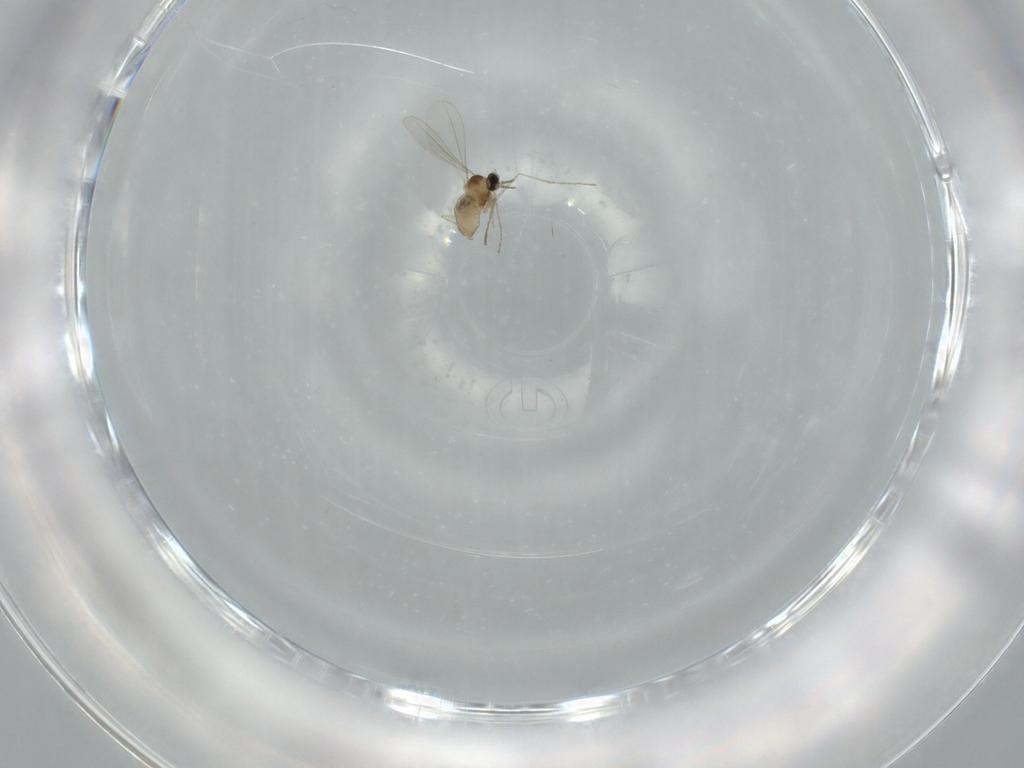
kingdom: Animalia
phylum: Arthropoda
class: Insecta
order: Diptera
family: Cecidomyiidae
